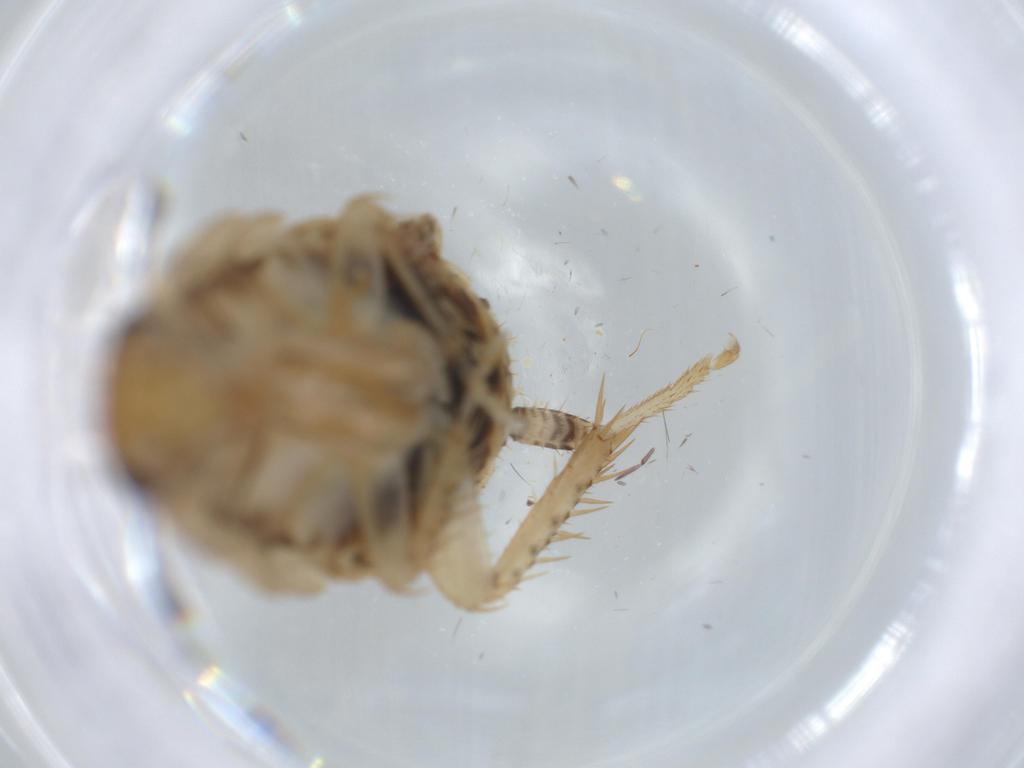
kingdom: Animalia
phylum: Arthropoda
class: Insecta
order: Blattodea
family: Ectobiidae
